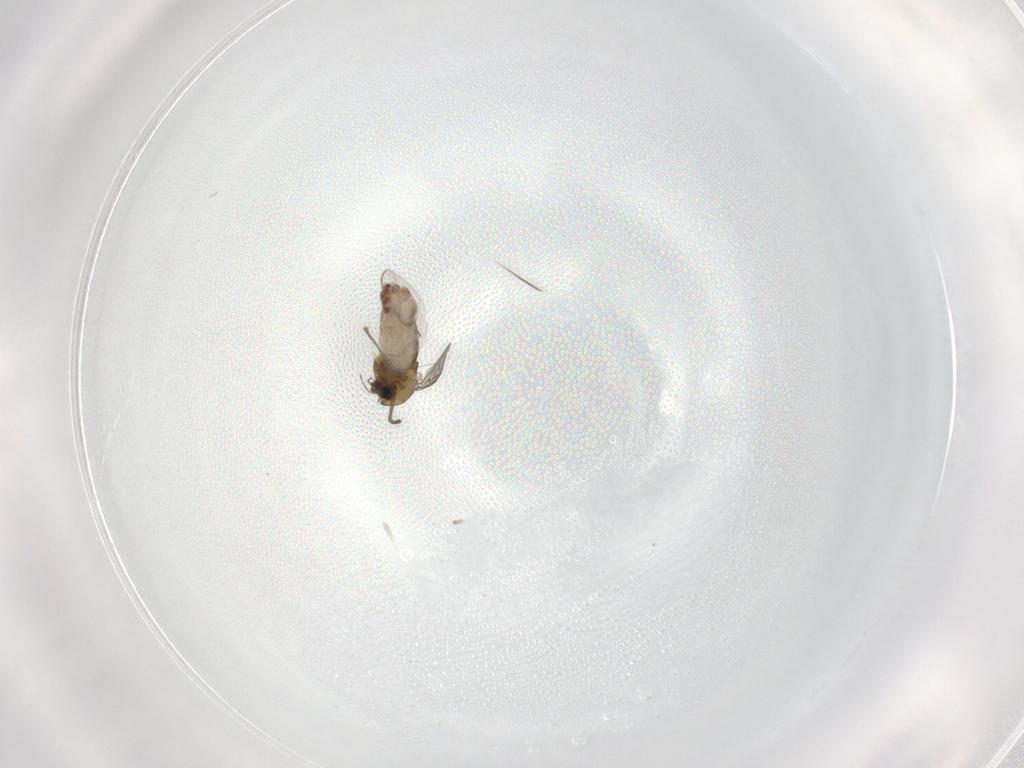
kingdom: Animalia
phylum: Arthropoda
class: Insecta
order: Diptera
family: Chironomidae
